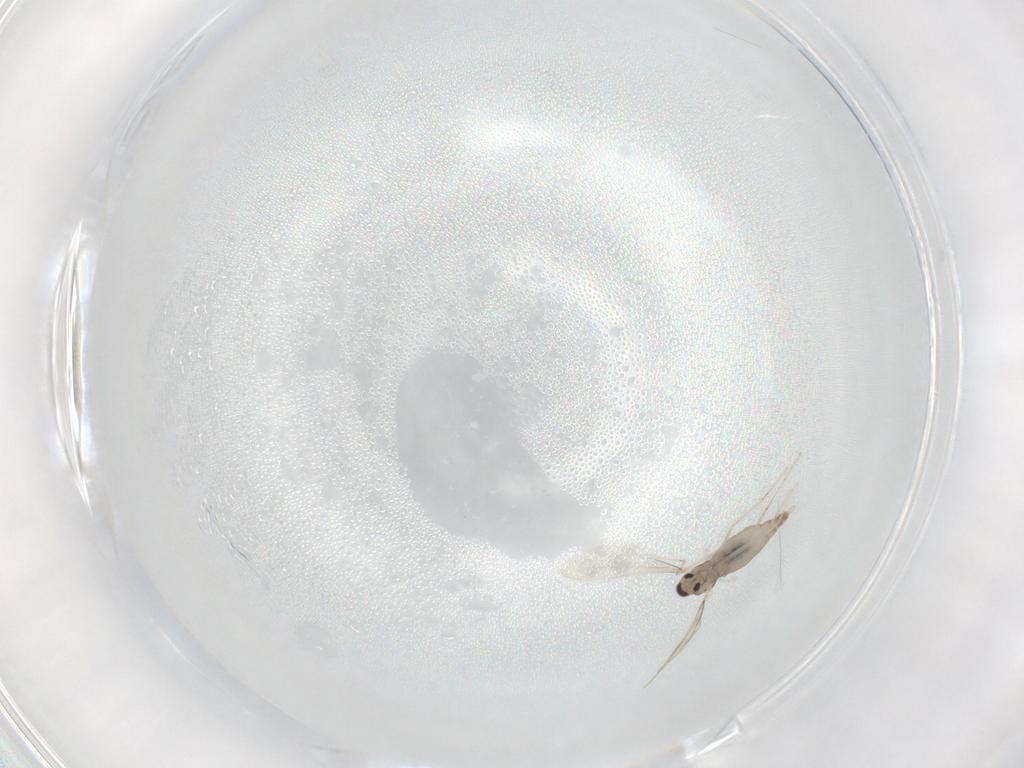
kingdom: Animalia
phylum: Arthropoda
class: Insecta
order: Diptera
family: Cecidomyiidae
